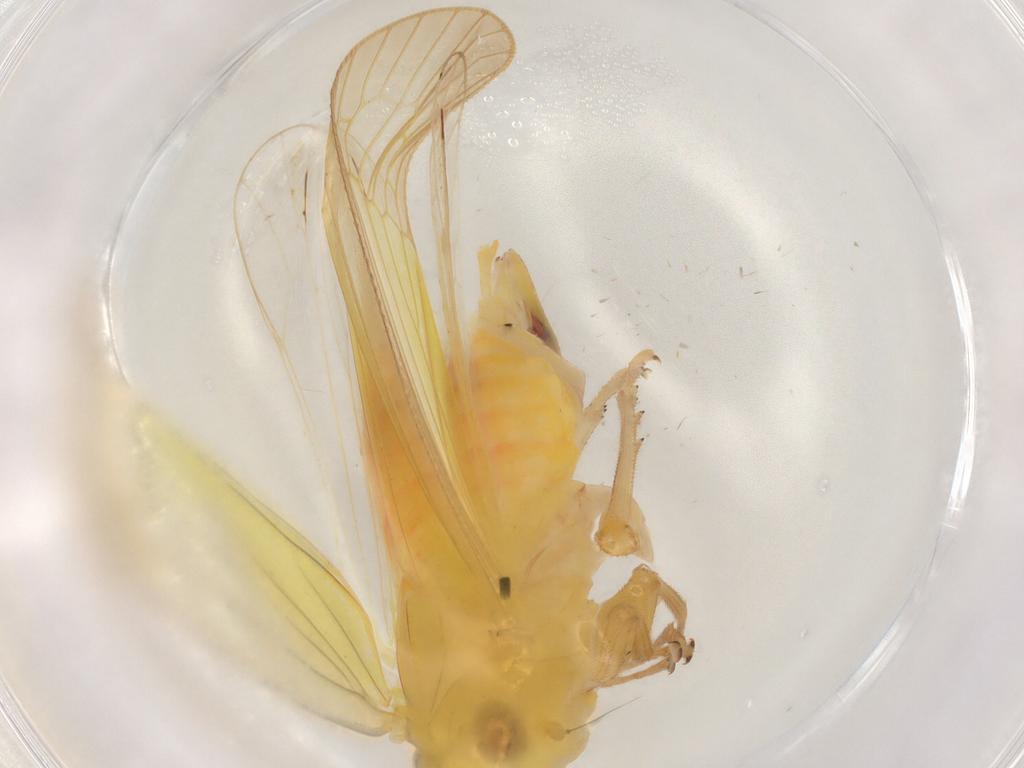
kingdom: Animalia
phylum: Arthropoda
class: Insecta
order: Hemiptera
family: Tropiduchidae
